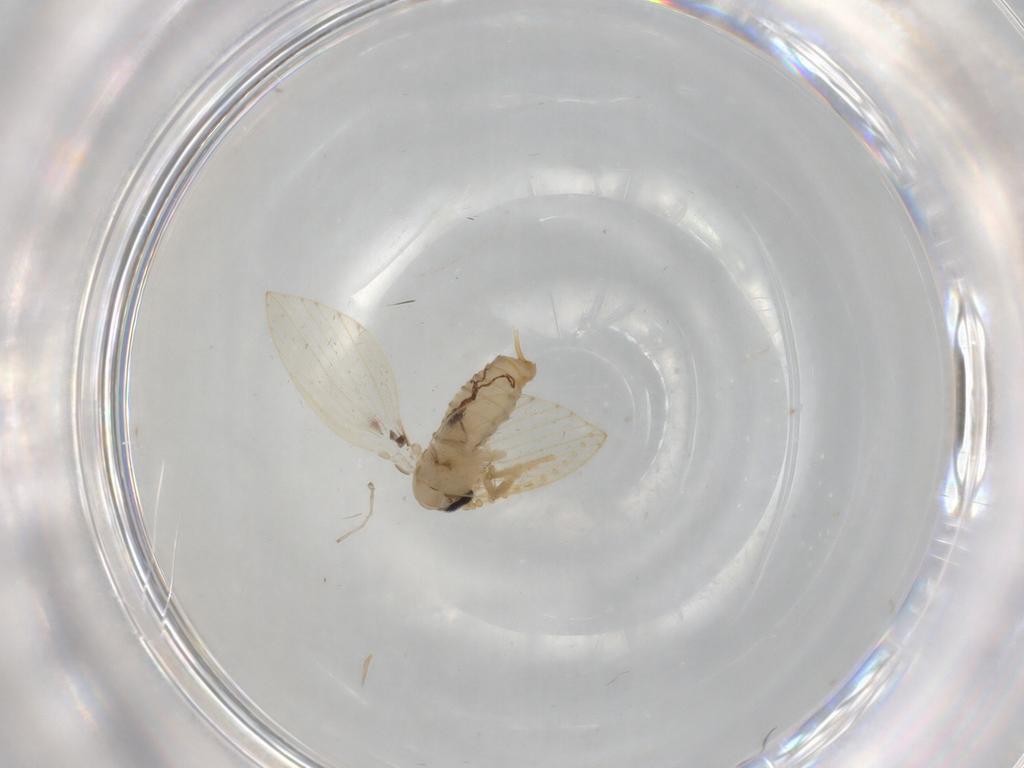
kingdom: Animalia
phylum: Arthropoda
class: Insecta
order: Diptera
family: Psychodidae
